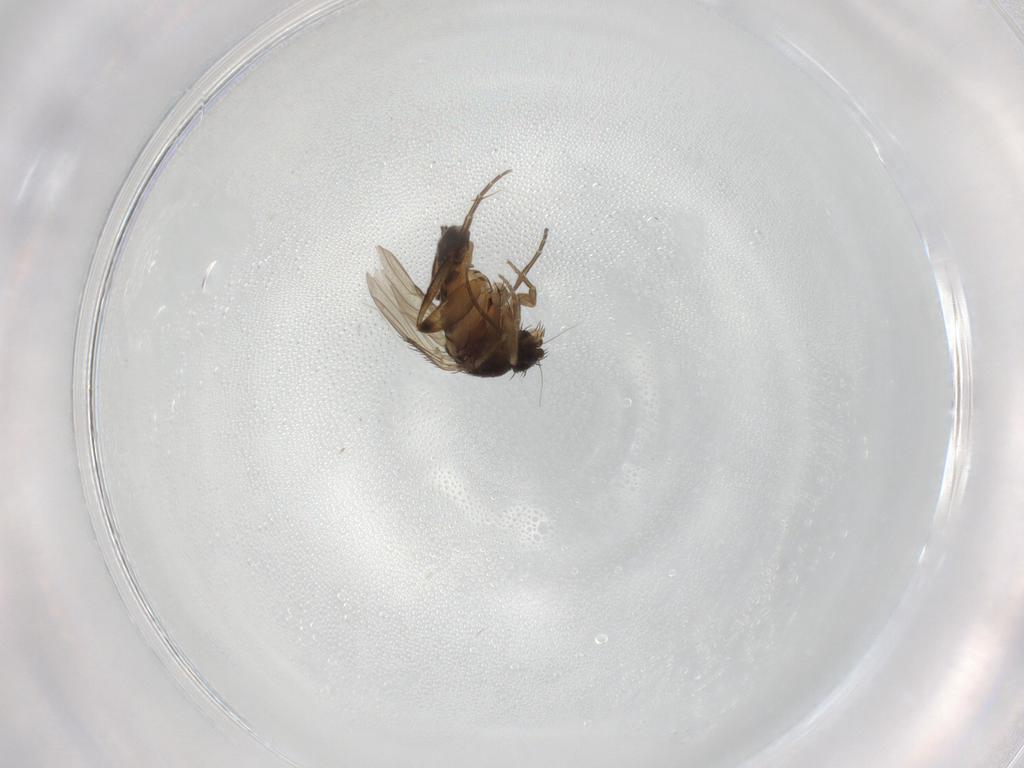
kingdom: Animalia
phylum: Arthropoda
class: Insecta
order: Diptera
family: Phoridae
